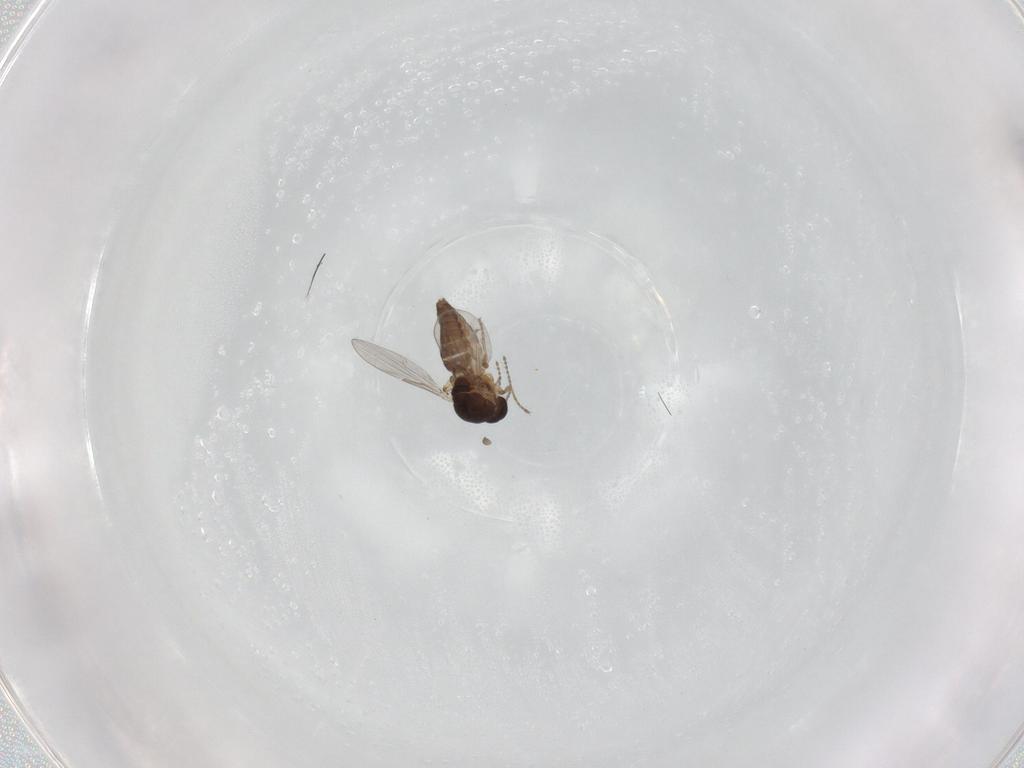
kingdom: Animalia
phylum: Arthropoda
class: Insecta
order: Diptera
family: Ceratopogonidae
